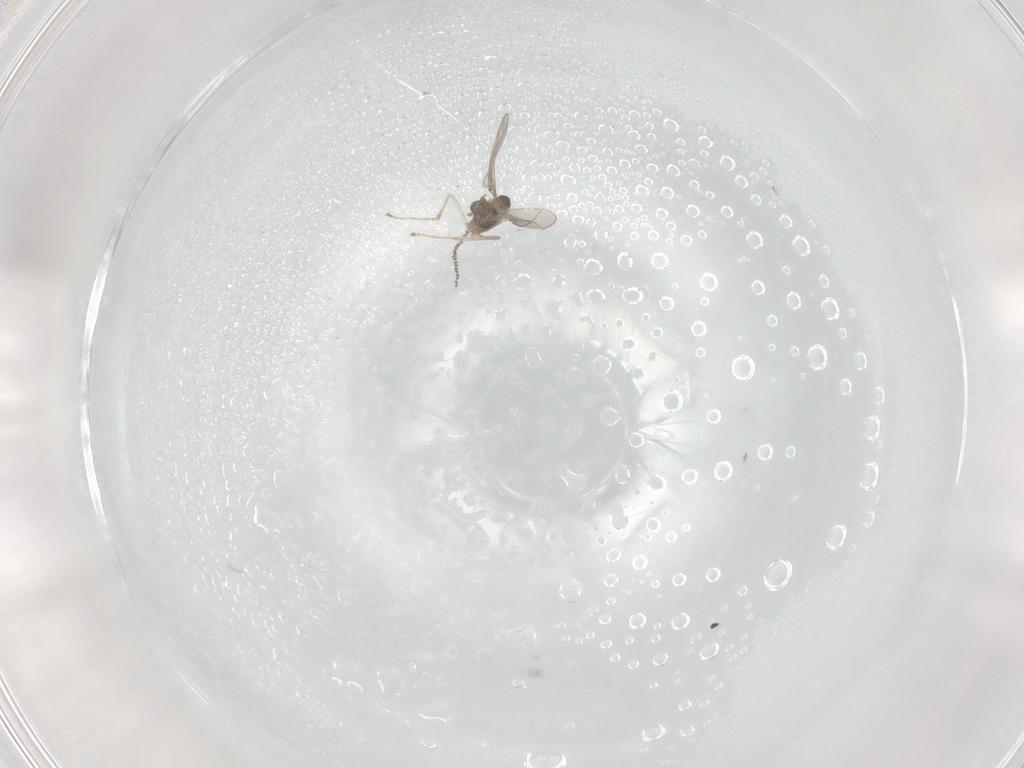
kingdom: Animalia
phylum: Arthropoda
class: Insecta
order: Diptera
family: Cecidomyiidae
